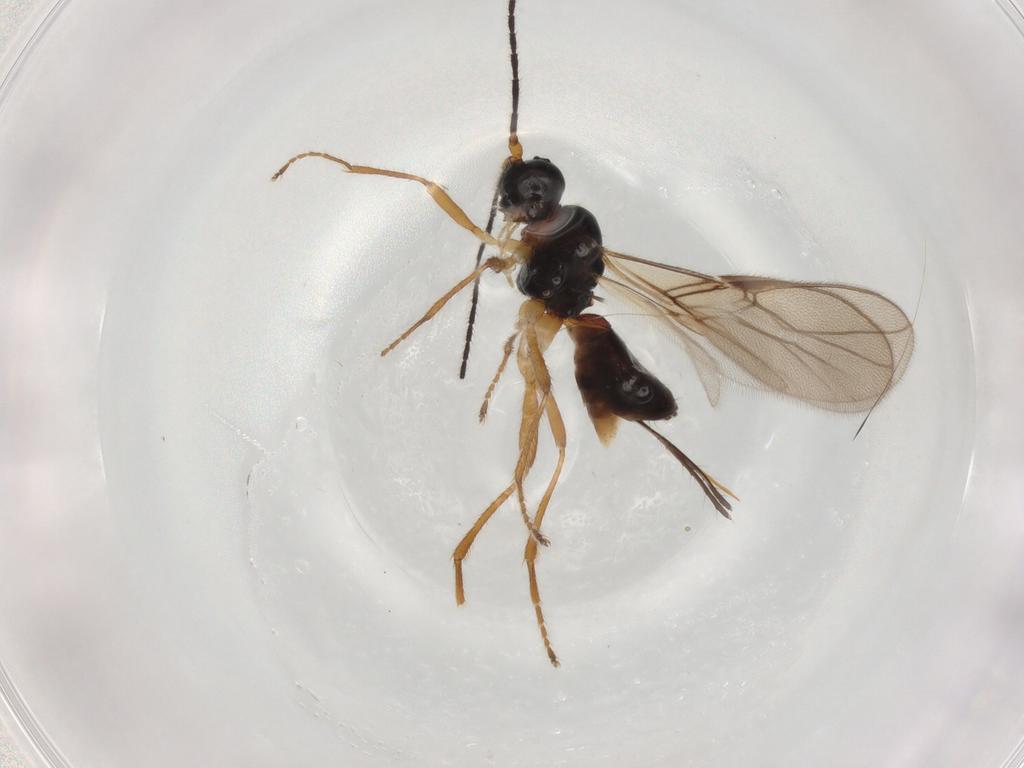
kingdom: Animalia
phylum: Arthropoda
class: Insecta
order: Hymenoptera
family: Braconidae
